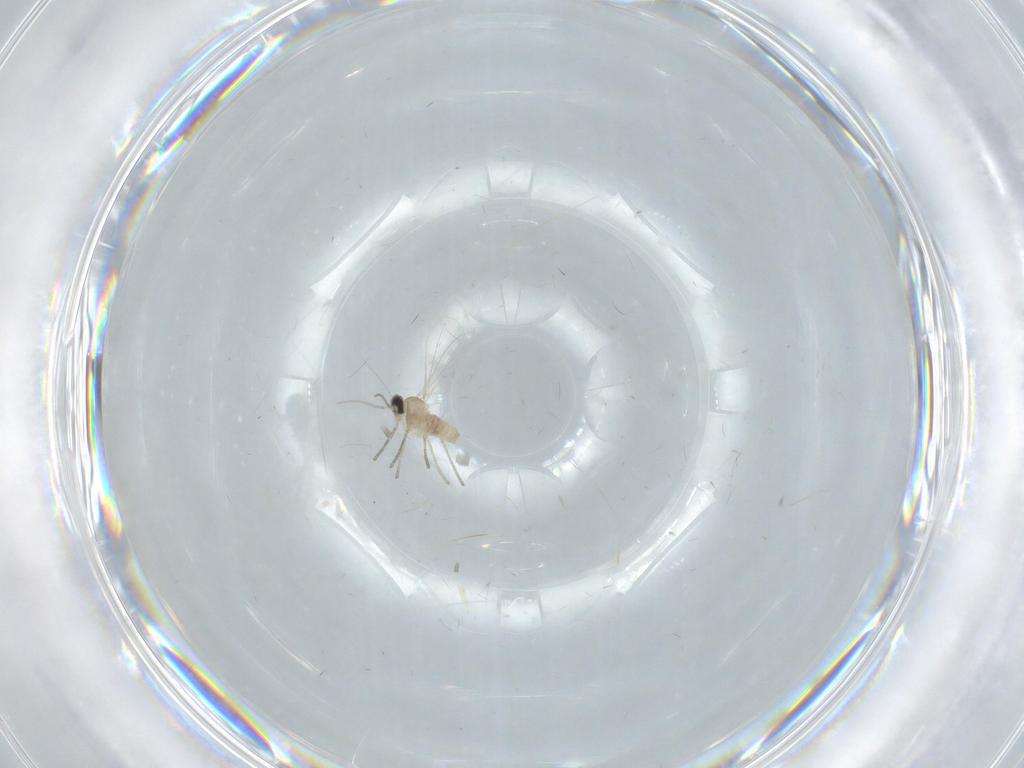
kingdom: Animalia
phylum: Arthropoda
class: Insecta
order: Diptera
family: Cecidomyiidae
